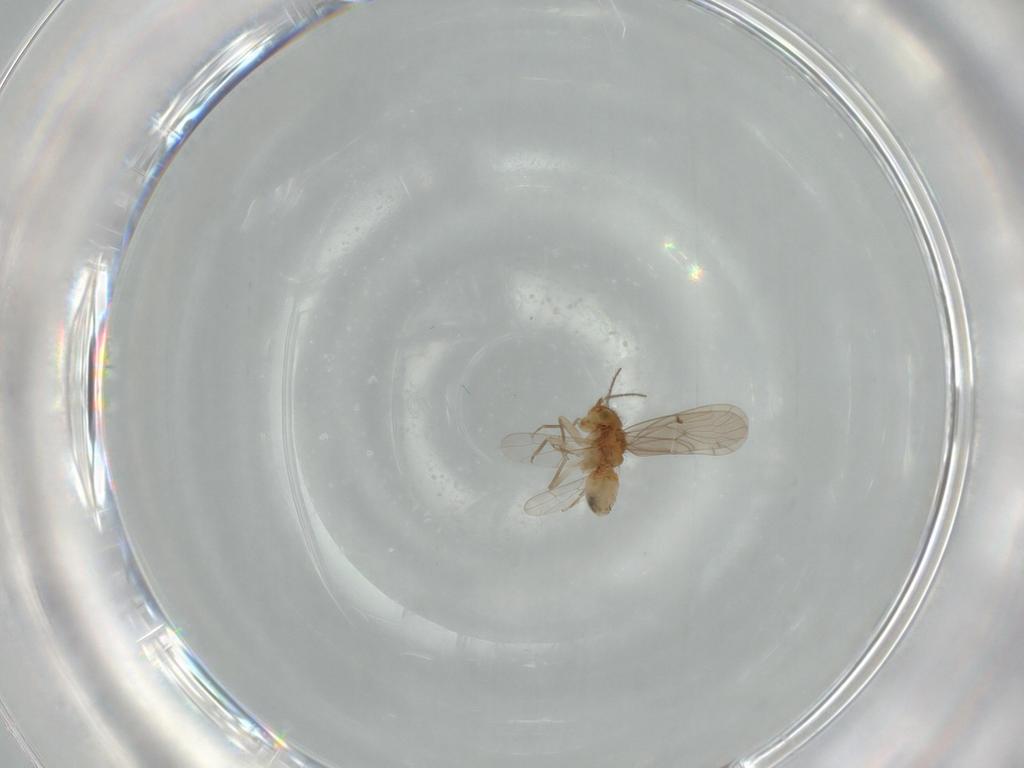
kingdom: Animalia
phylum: Arthropoda
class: Insecta
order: Psocodea
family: Ectopsocidae
